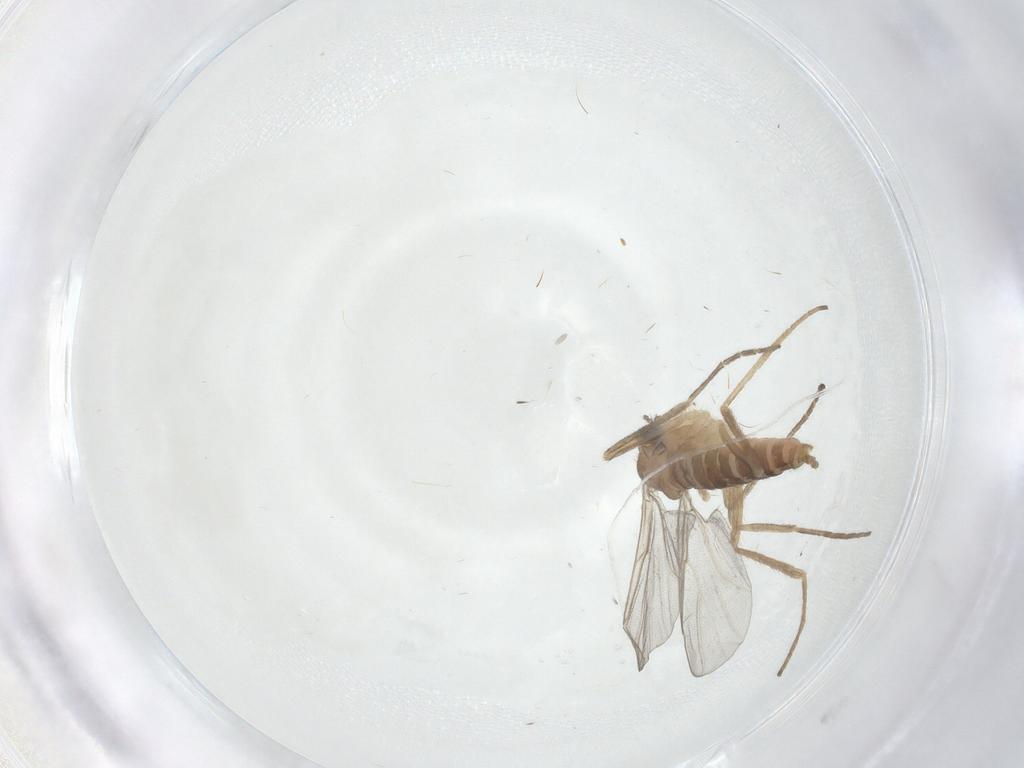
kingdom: Animalia
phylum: Arthropoda
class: Insecta
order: Diptera
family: Cecidomyiidae
